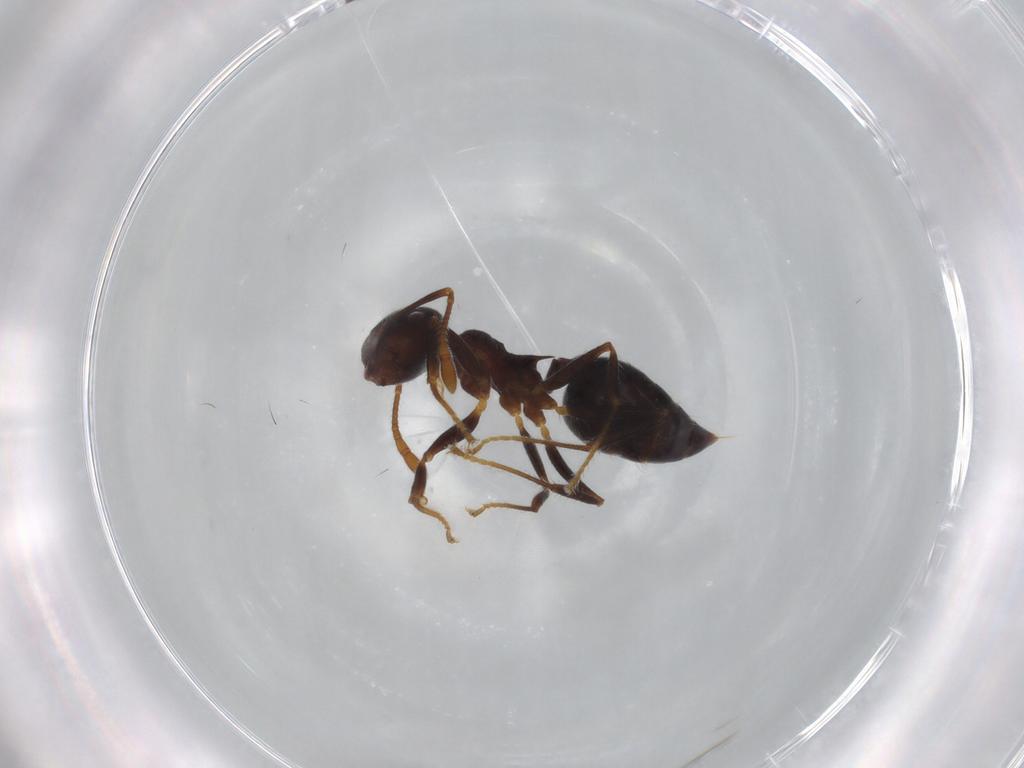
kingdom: Animalia
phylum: Arthropoda
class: Insecta
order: Hymenoptera
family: Formicidae
